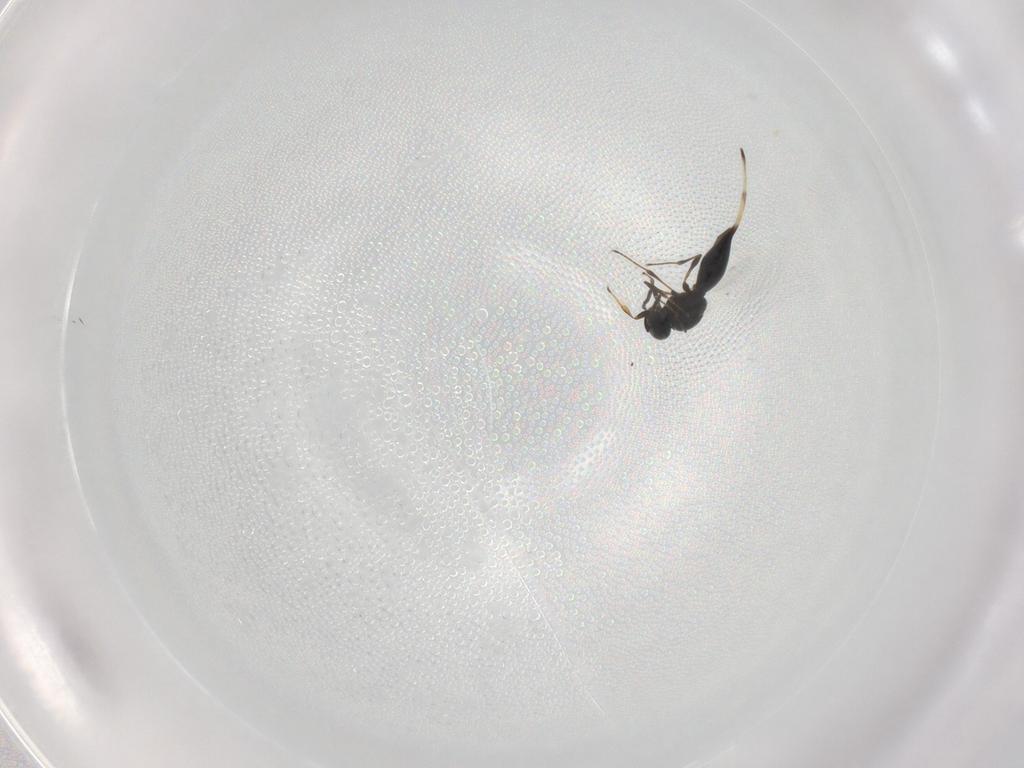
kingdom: Animalia
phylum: Arthropoda
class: Insecta
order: Hymenoptera
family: Platygastridae
